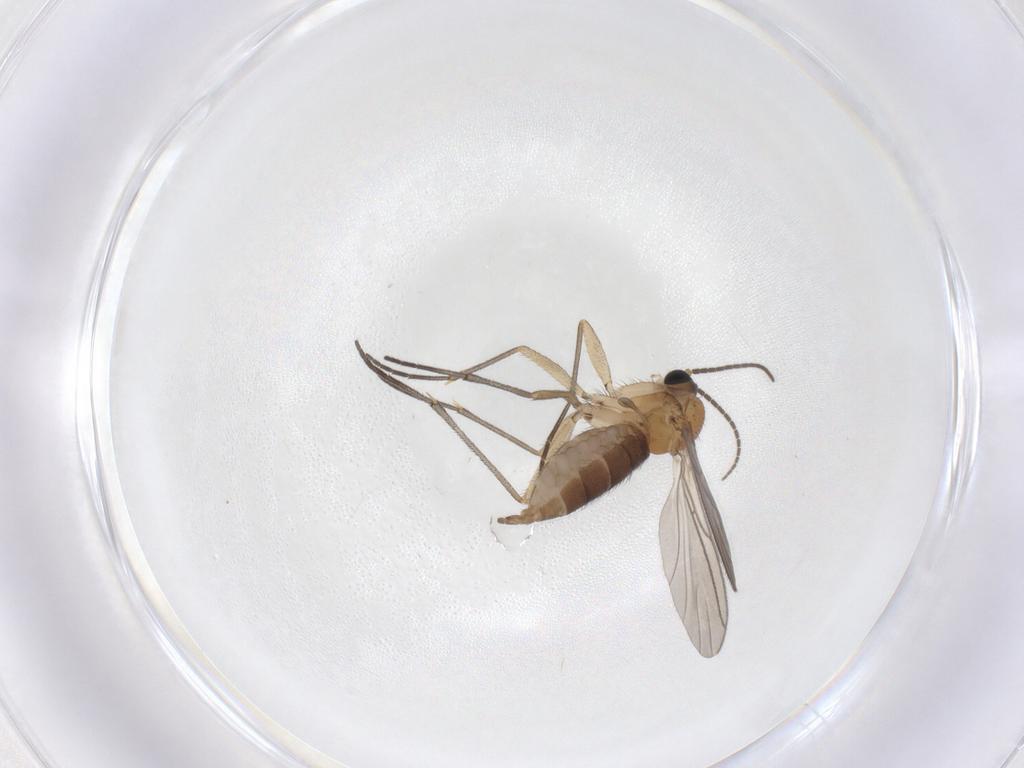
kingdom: Animalia
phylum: Arthropoda
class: Insecta
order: Diptera
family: Sciaridae
